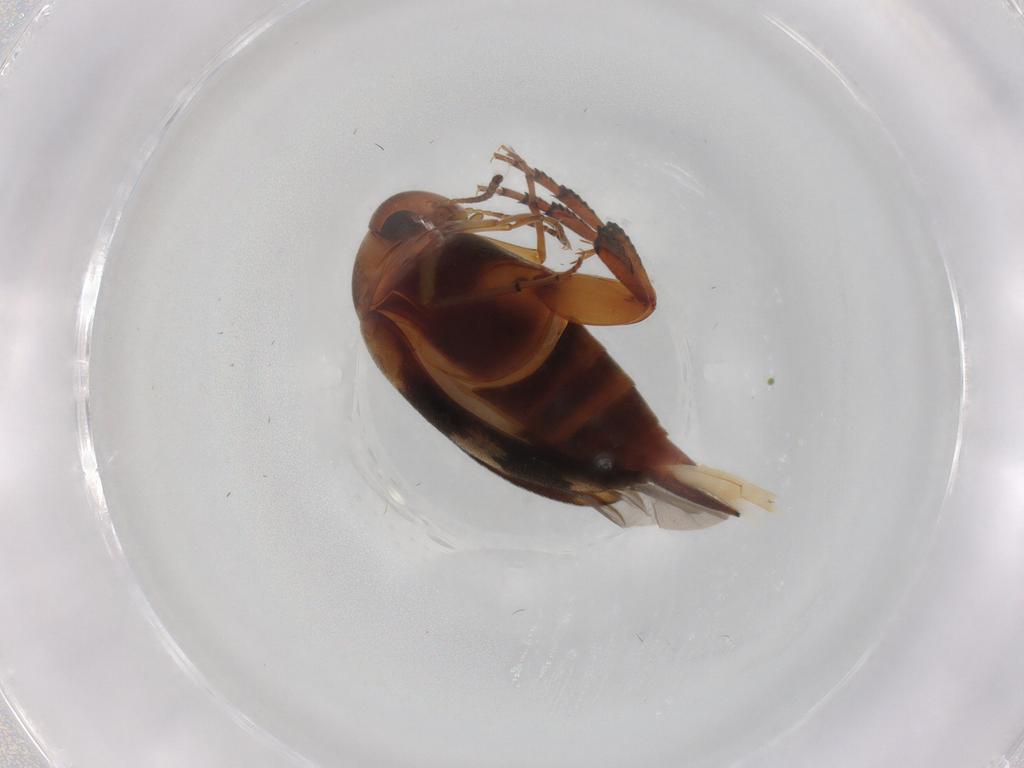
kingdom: Animalia
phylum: Arthropoda
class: Insecta
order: Coleoptera
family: Mordellidae
